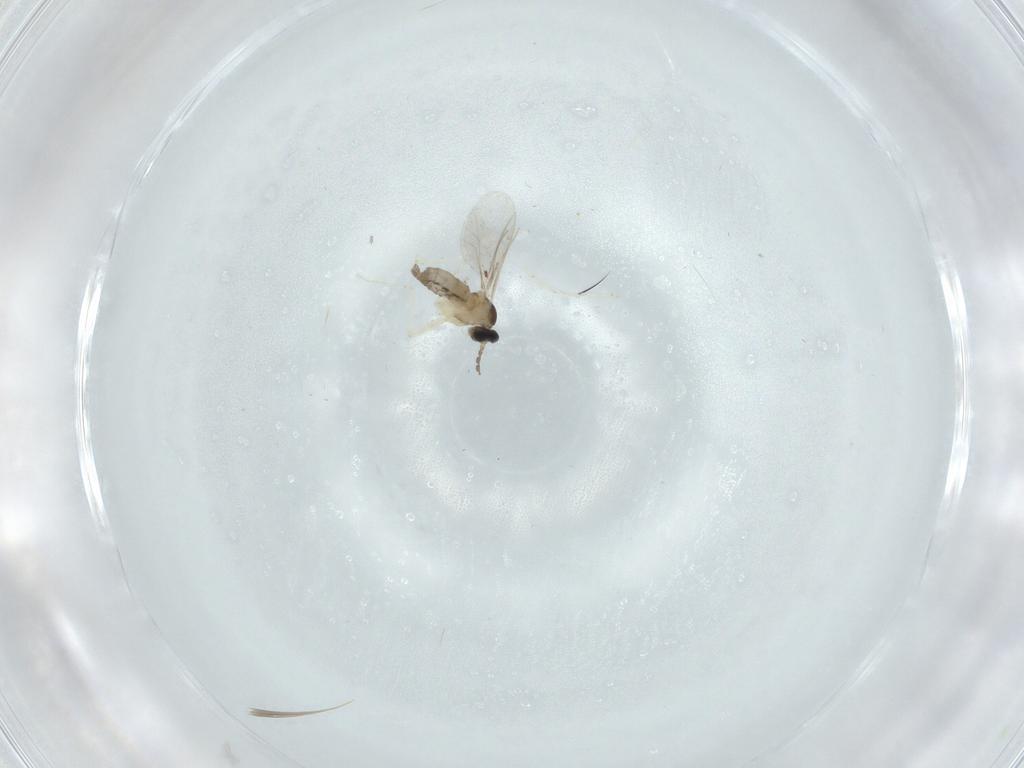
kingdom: Animalia
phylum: Arthropoda
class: Insecta
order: Diptera
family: Cecidomyiidae
